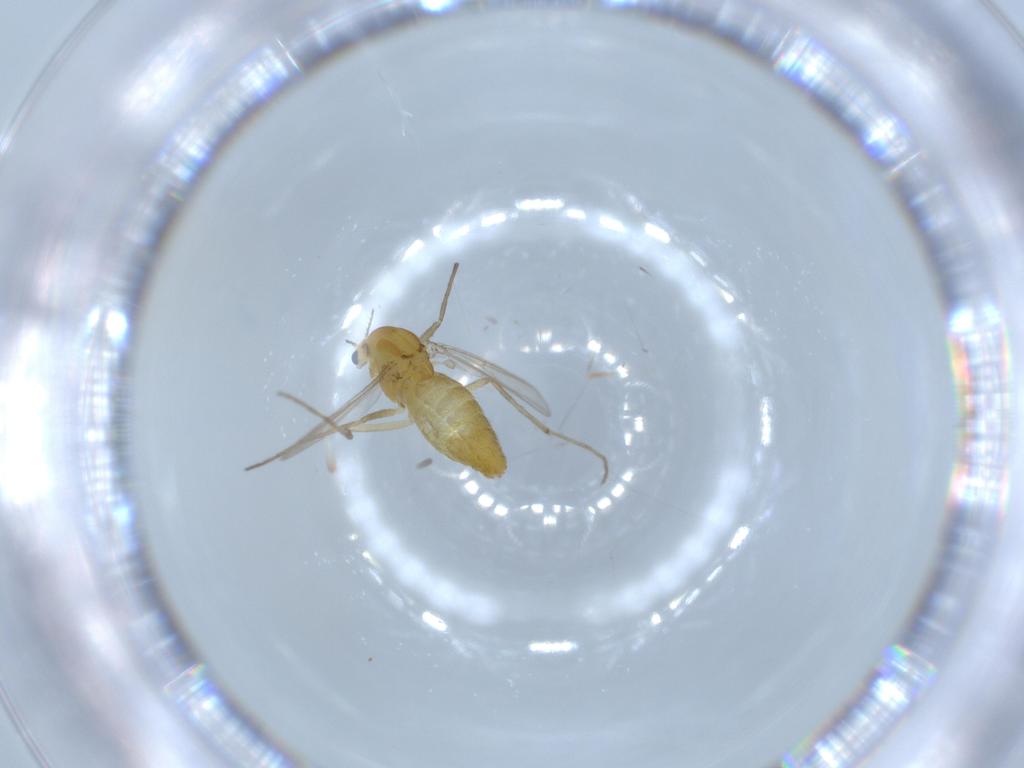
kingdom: Animalia
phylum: Arthropoda
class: Insecta
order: Diptera
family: Chironomidae
